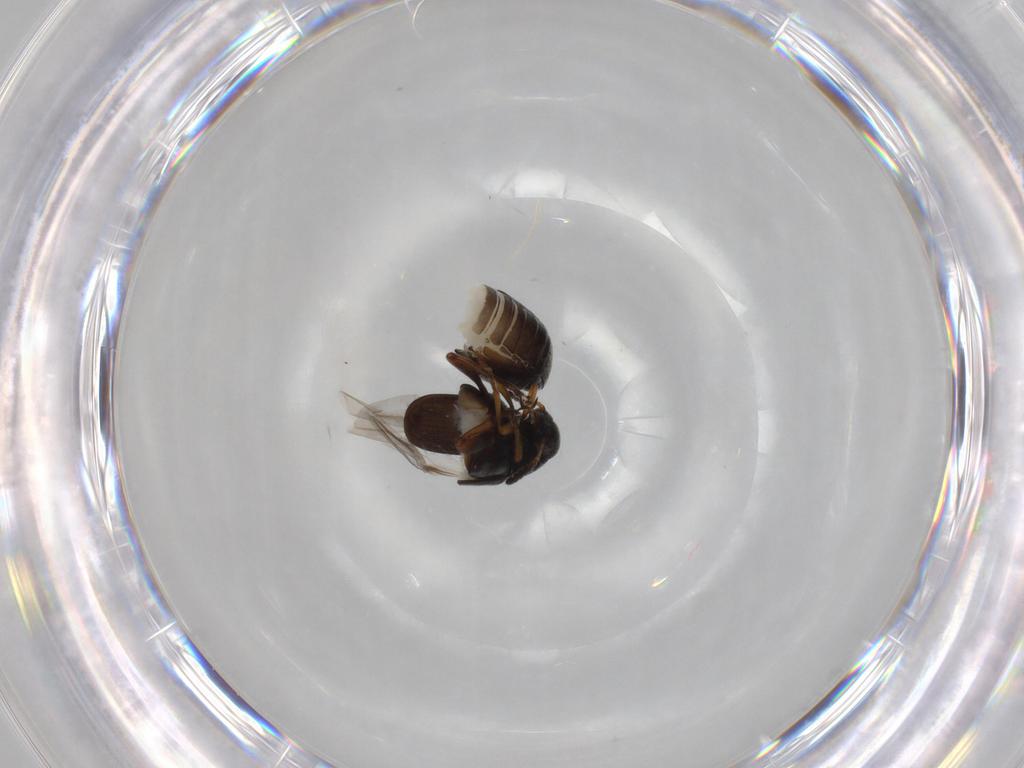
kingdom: Animalia
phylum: Arthropoda
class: Insecta
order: Coleoptera
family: Chrysomelidae
